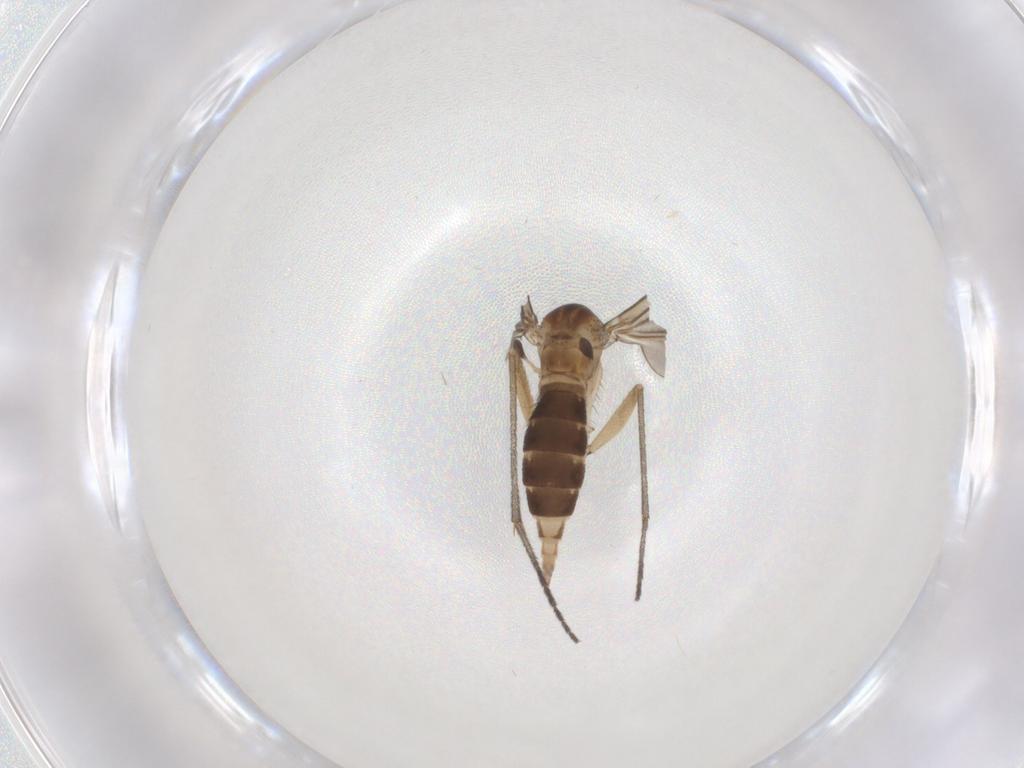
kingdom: Animalia
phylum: Arthropoda
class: Insecta
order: Diptera
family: Sciaridae
